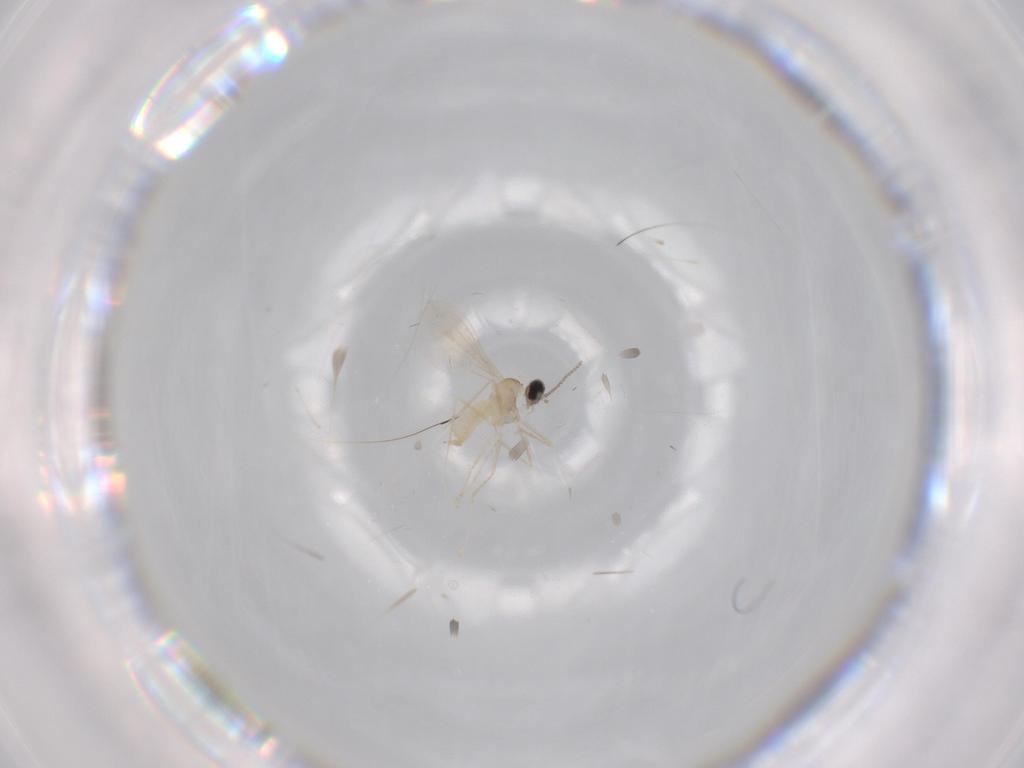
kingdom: Animalia
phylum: Arthropoda
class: Insecta
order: Diptera
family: Cecidomyiidae
